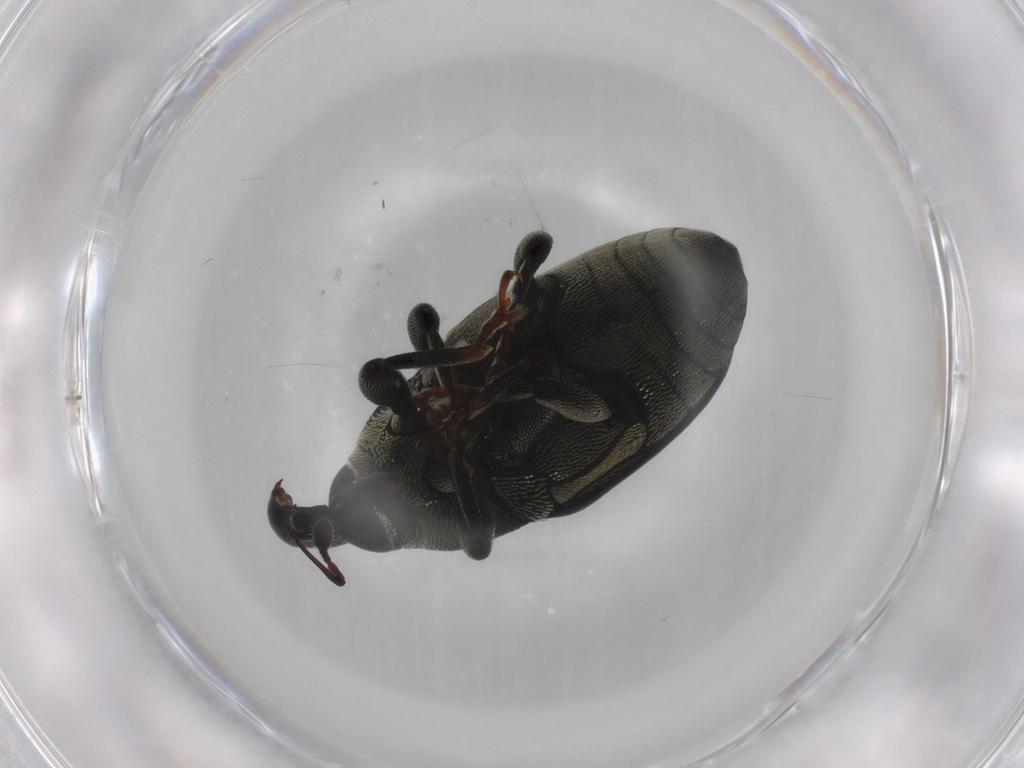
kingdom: Animalia
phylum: Arthropoda
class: Insecta
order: Coleoptera
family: Curculionidae
